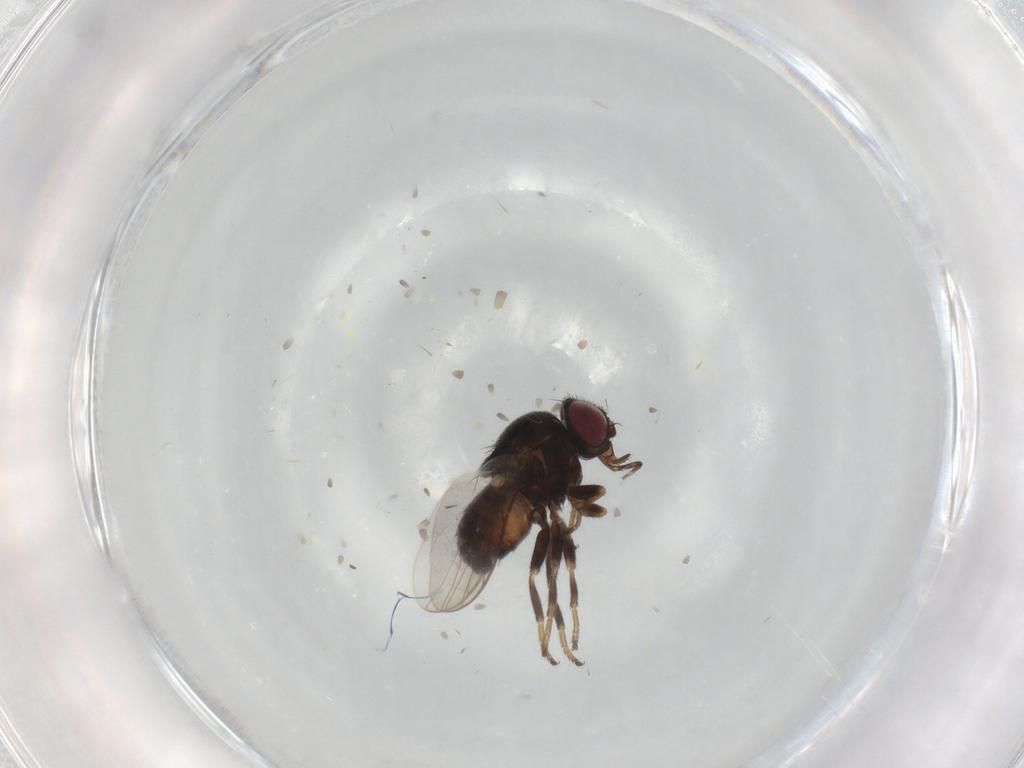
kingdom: Animalia
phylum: Arthropoda
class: Insecta
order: Diptera
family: Chloropidae
